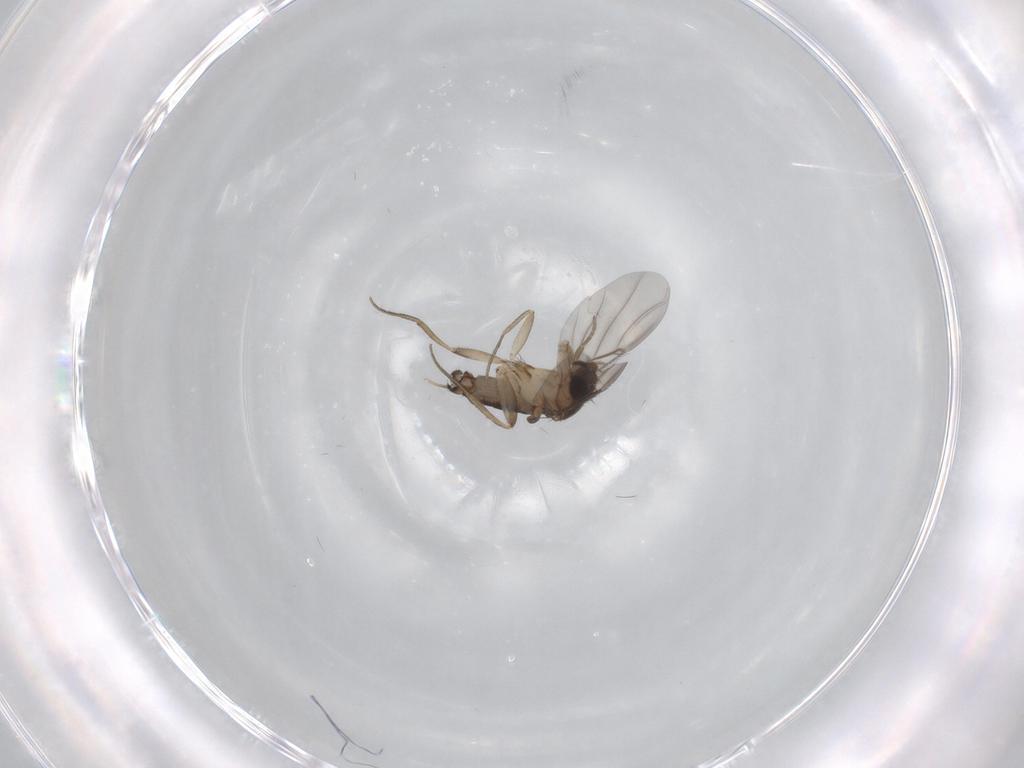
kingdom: Animalia
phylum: Arthropoda
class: Insecta
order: Diptera
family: Phoridae
